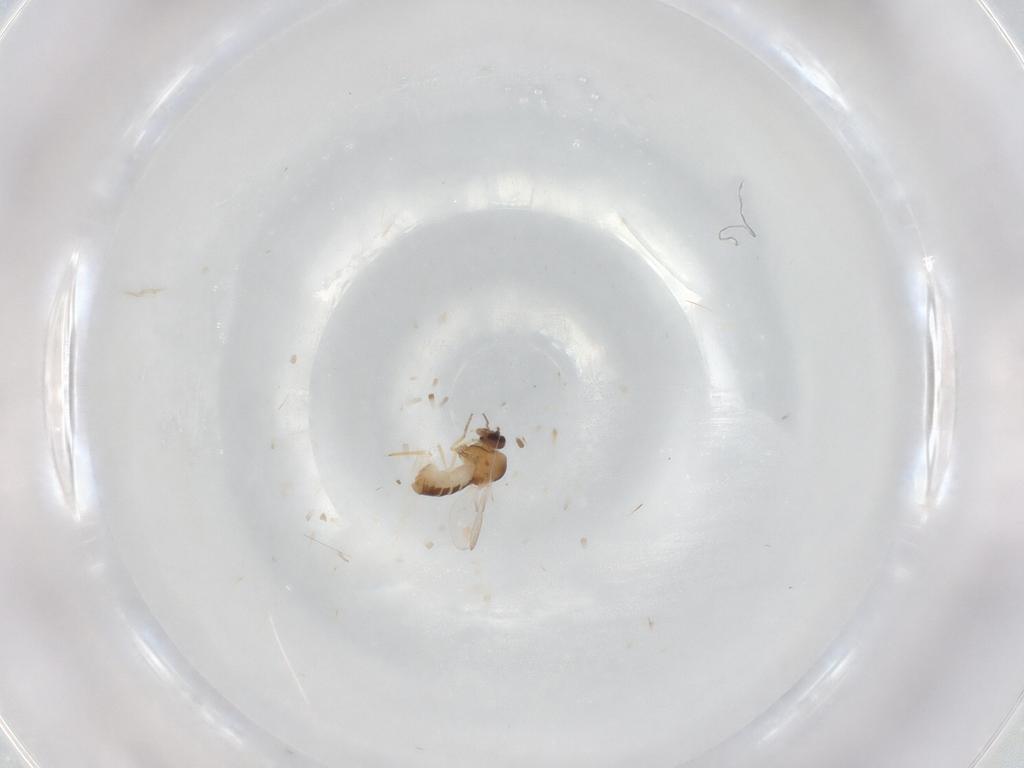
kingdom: Animalia
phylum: Arthropoda
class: Insecta
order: Diptera
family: Ceratopogonidae
